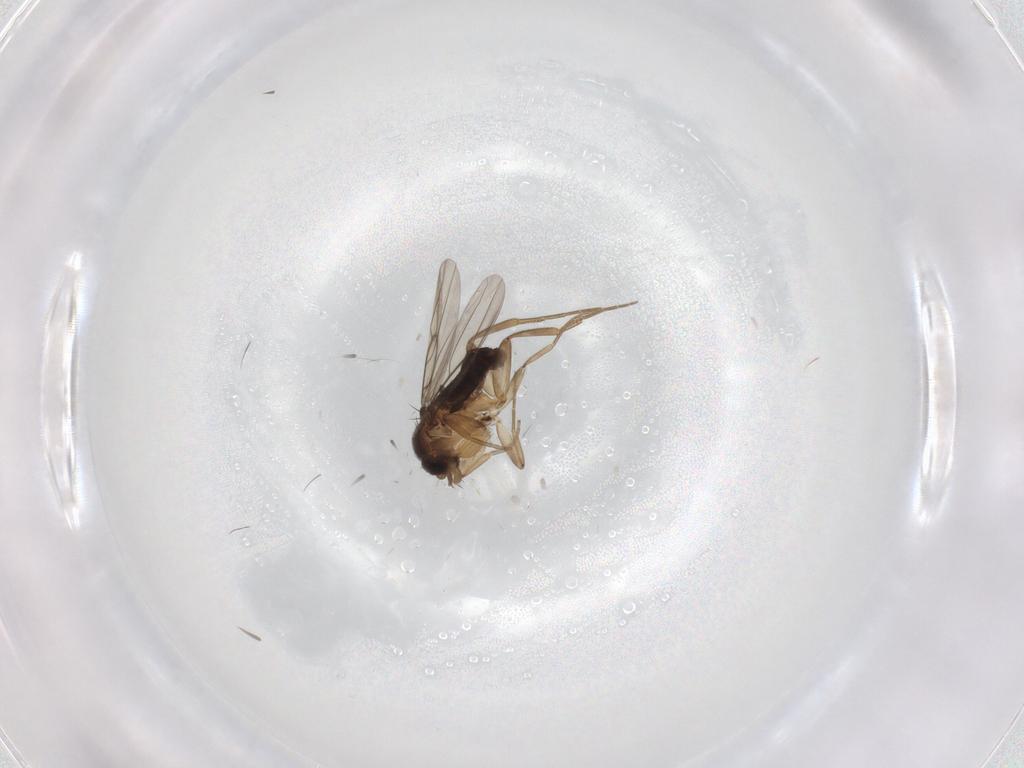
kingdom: Animalia
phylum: Arthropoda
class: Insecta
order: Diptera
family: Phoridae
